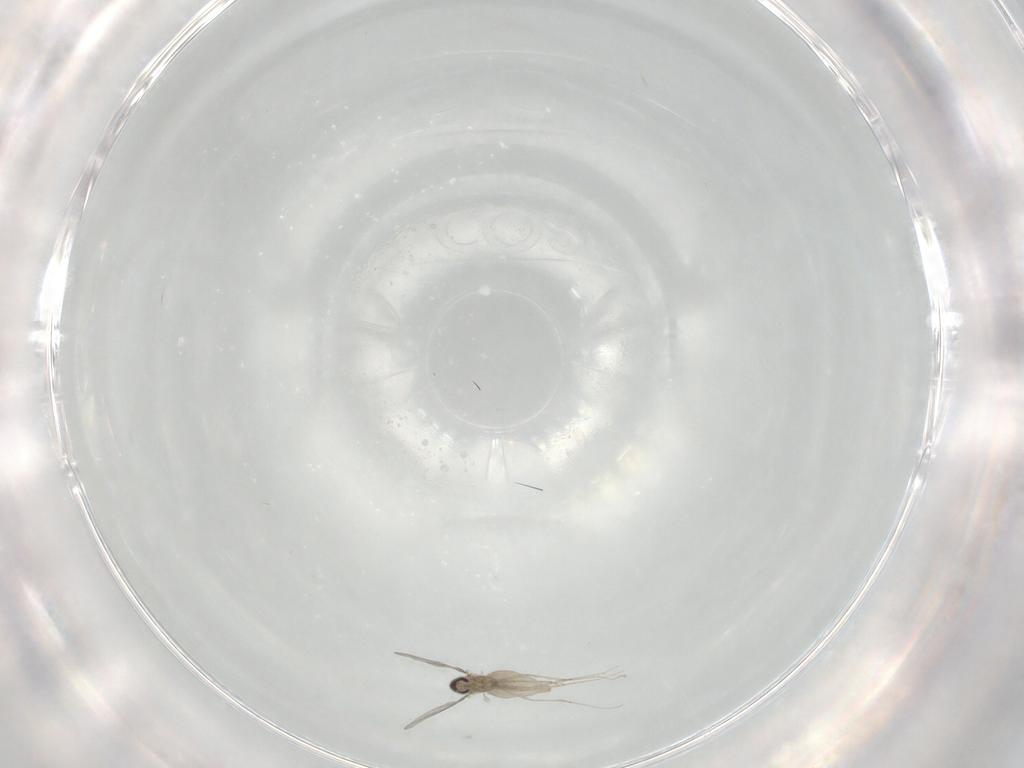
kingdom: Animalia
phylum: Arthropoda
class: Insecta
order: Diptera
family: Cecidomyiidae
